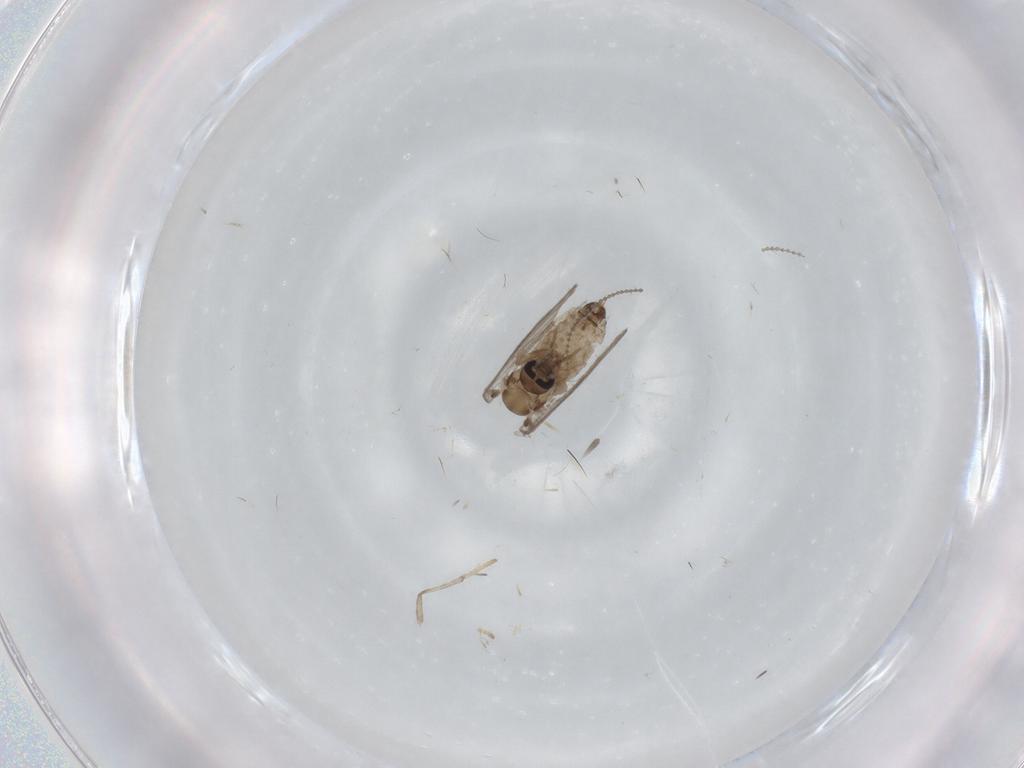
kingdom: Animalia
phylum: Arthropoda
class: Insecta
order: Diptera
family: Psychodidae
